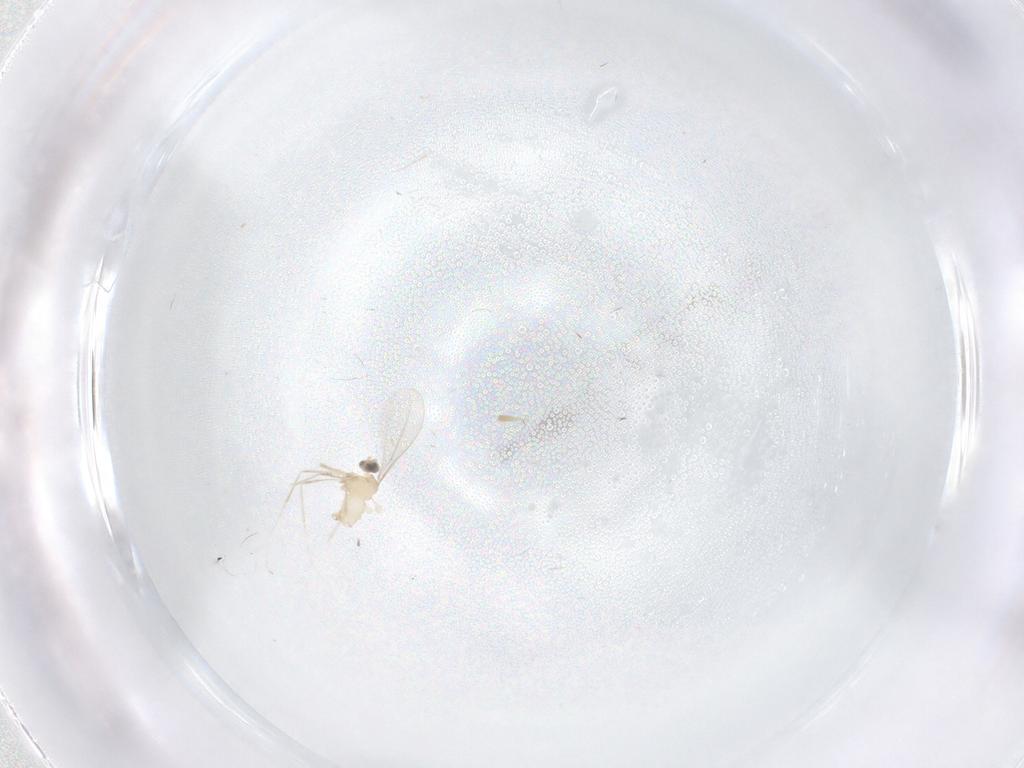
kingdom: Animalia
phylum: Arthropoda
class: Insecta
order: Diptera
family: Cecidomyiidae
